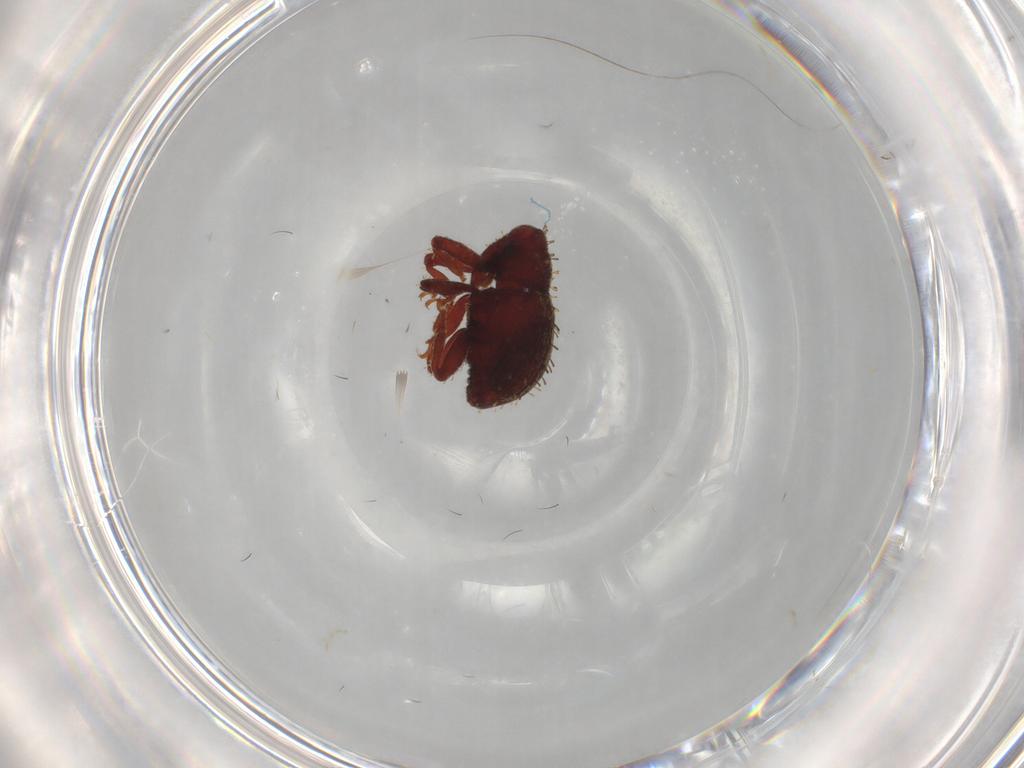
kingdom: Animalia
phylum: Arthropoda
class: Insecta
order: Coleoptera
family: Curculionidae
